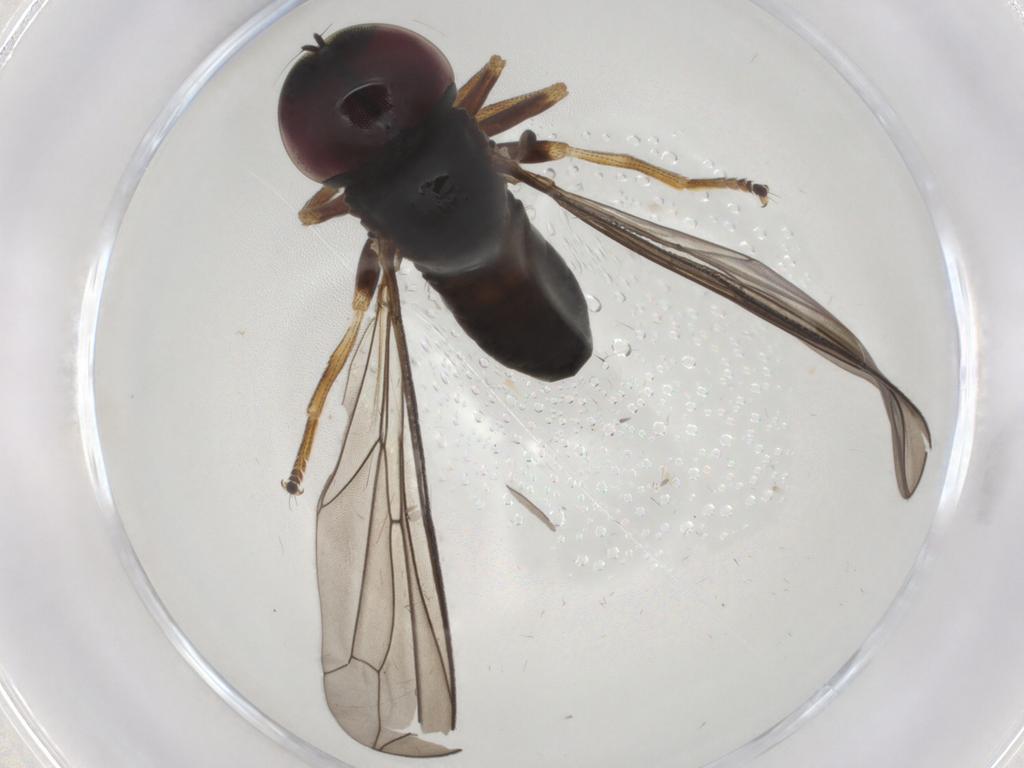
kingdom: Animalia
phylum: Arthropoda
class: Insecta
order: Diptera
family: Pipunculidae
